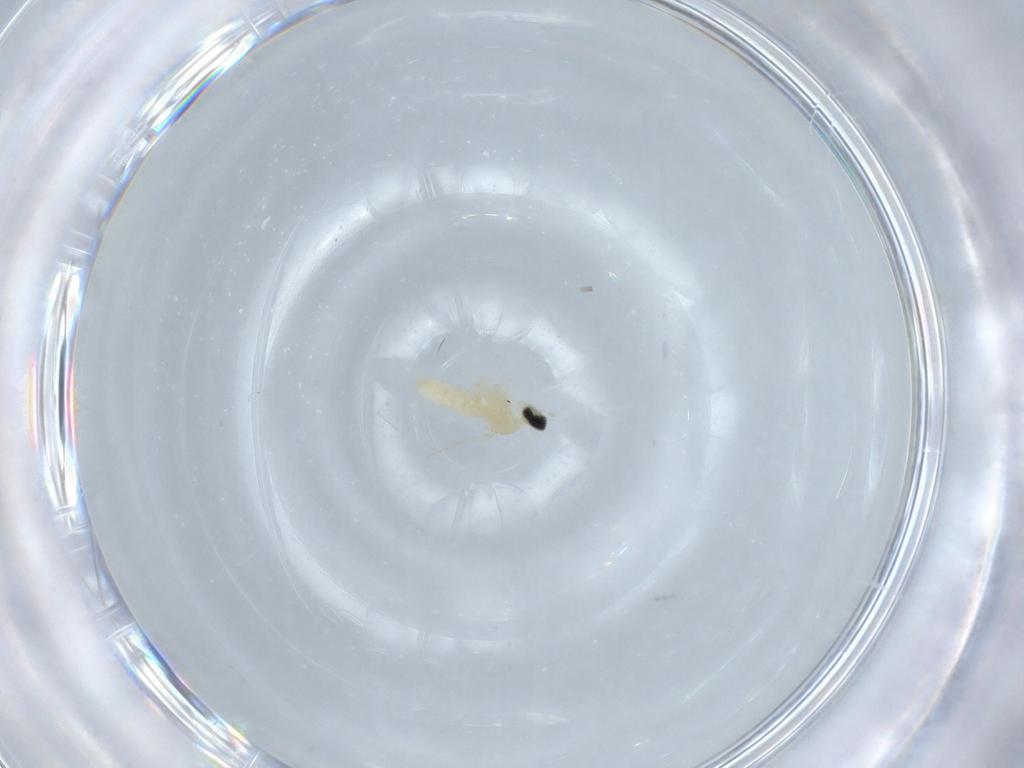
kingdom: Animalia
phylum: Arthropoda
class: Insecta
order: Diptera
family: Cecidomyiidae
